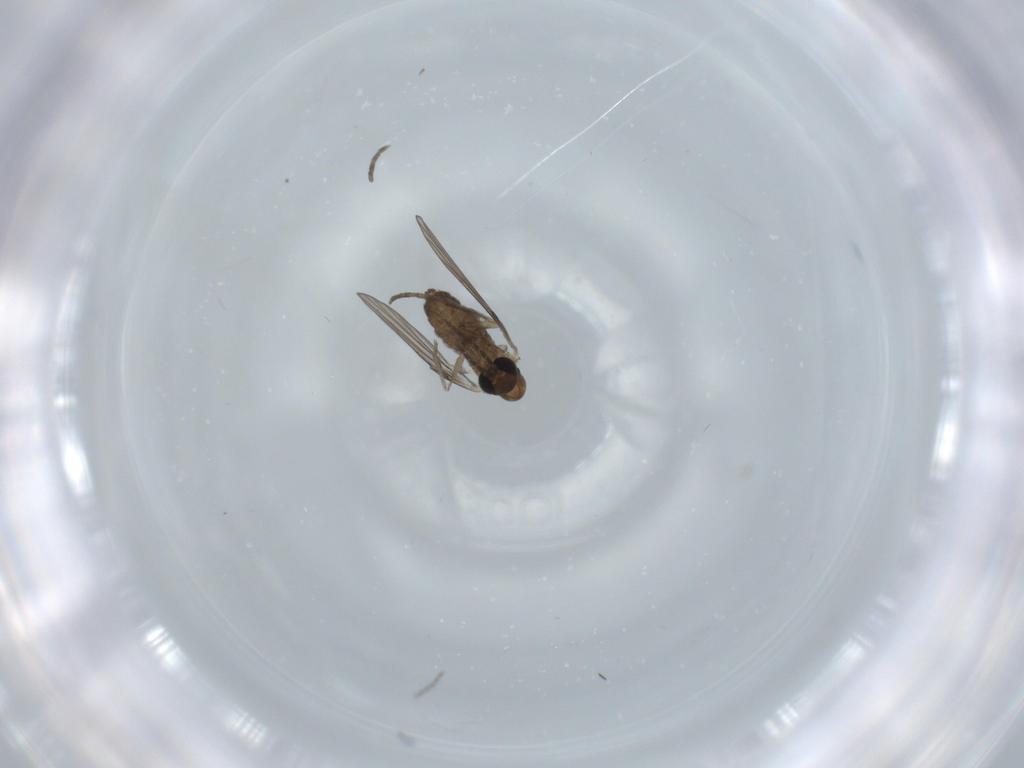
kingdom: Animalia
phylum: Arthropoda
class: Insecta
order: Diptera
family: Psychodidae
